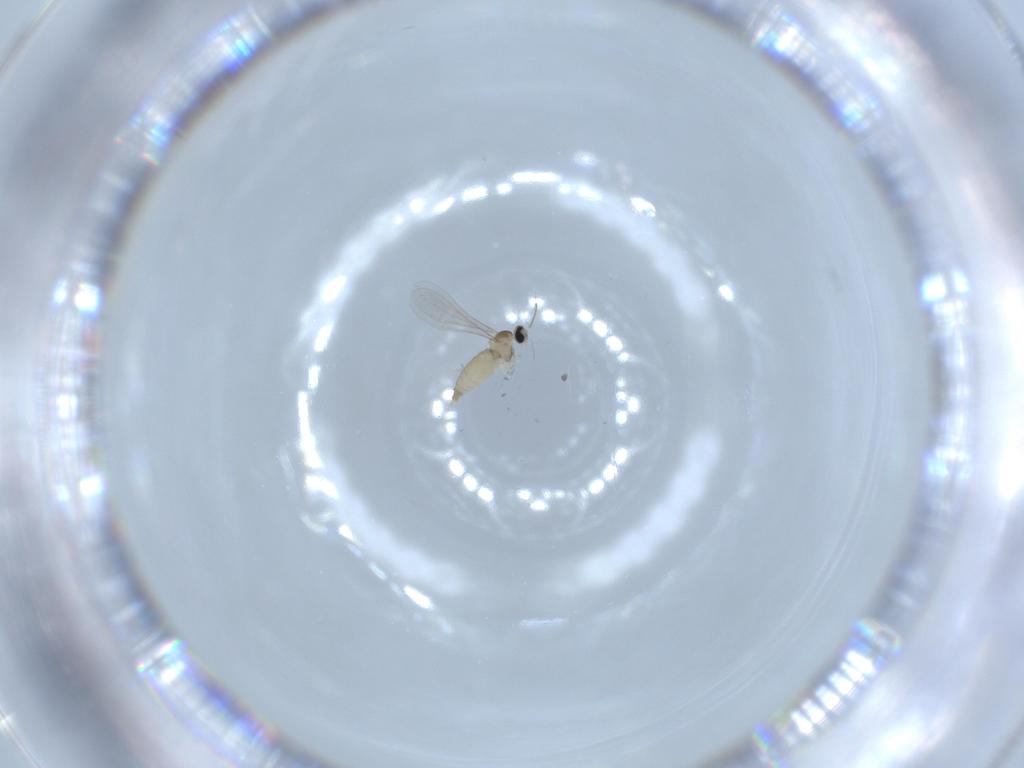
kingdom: Animalia
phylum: Arthropoda
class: Insecta
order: Diptera
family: Cecidomyiidae
